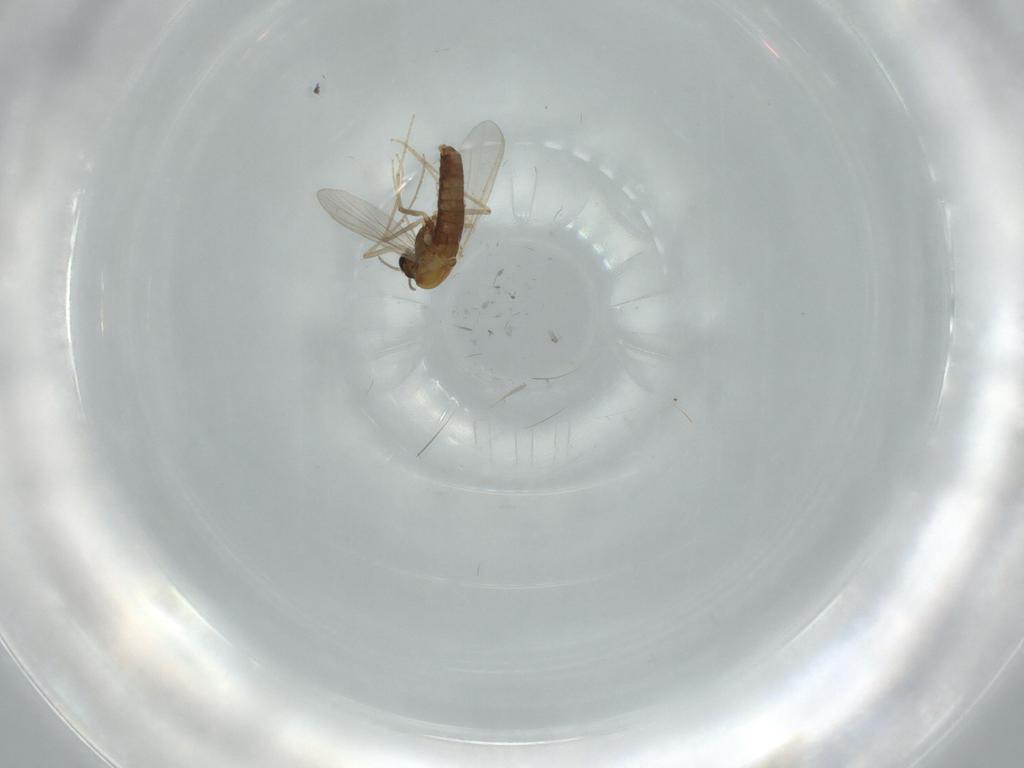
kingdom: Animalia
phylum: Arthropoda
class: Insecta
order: Diptera
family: Chironomidae
